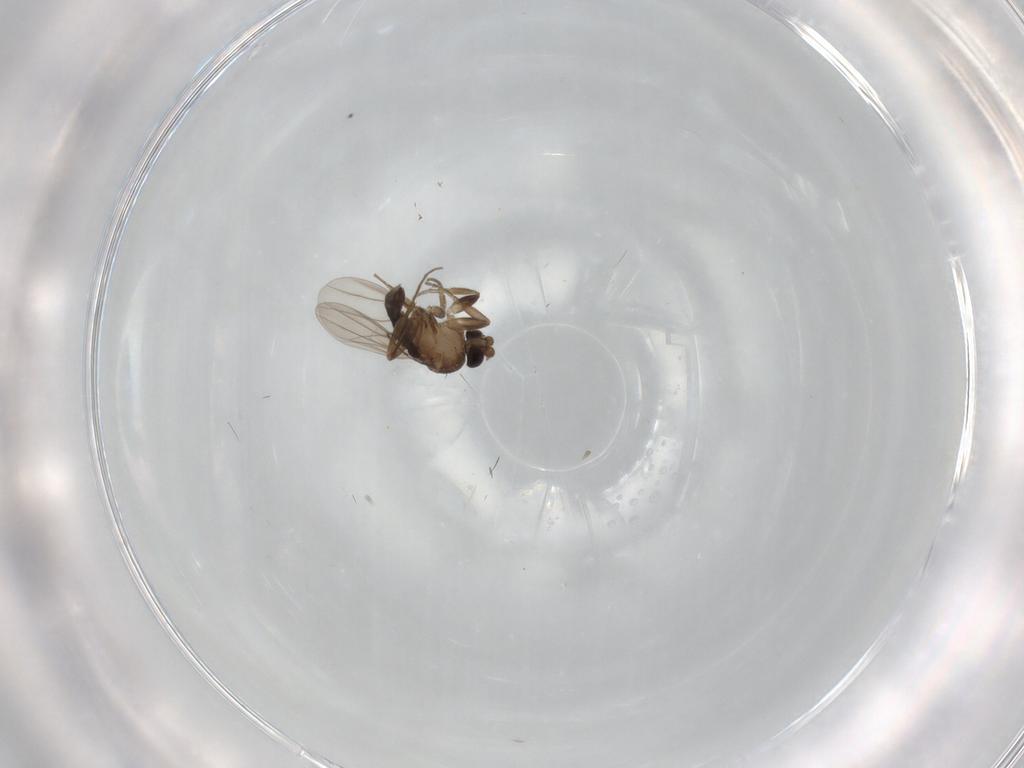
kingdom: Animalia
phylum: Arthropoda
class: Insecta
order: Diptera
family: Phoridae
